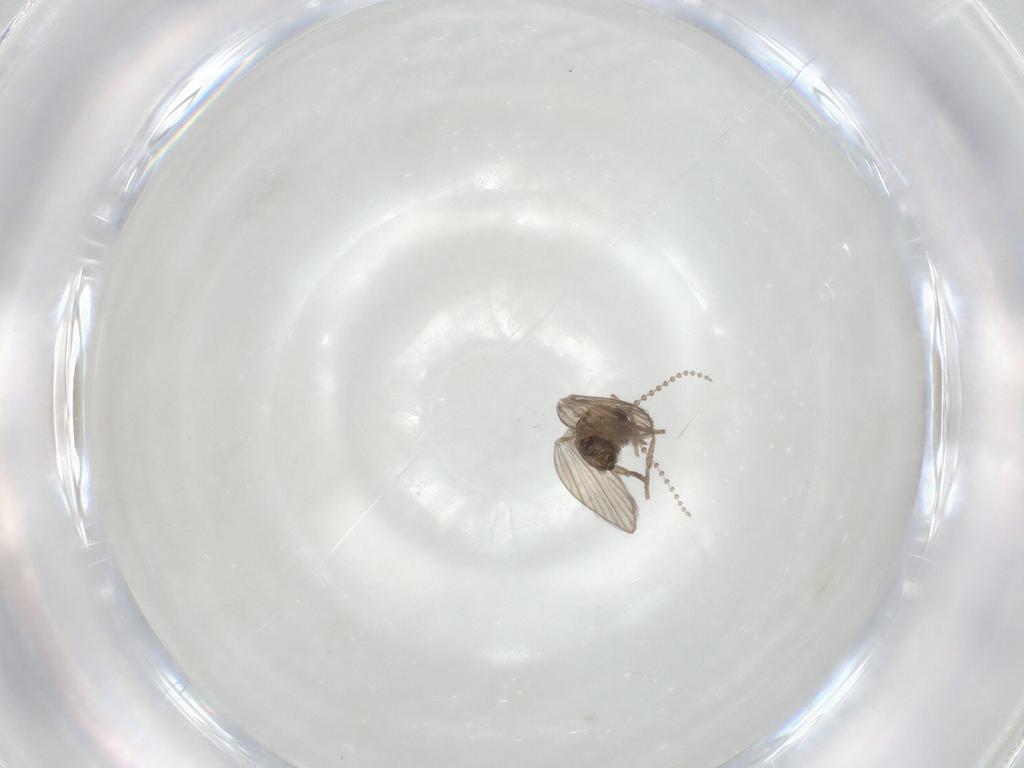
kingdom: Animalia
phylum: Arthropoda
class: Insecta
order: Diptera
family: Psychodidae
